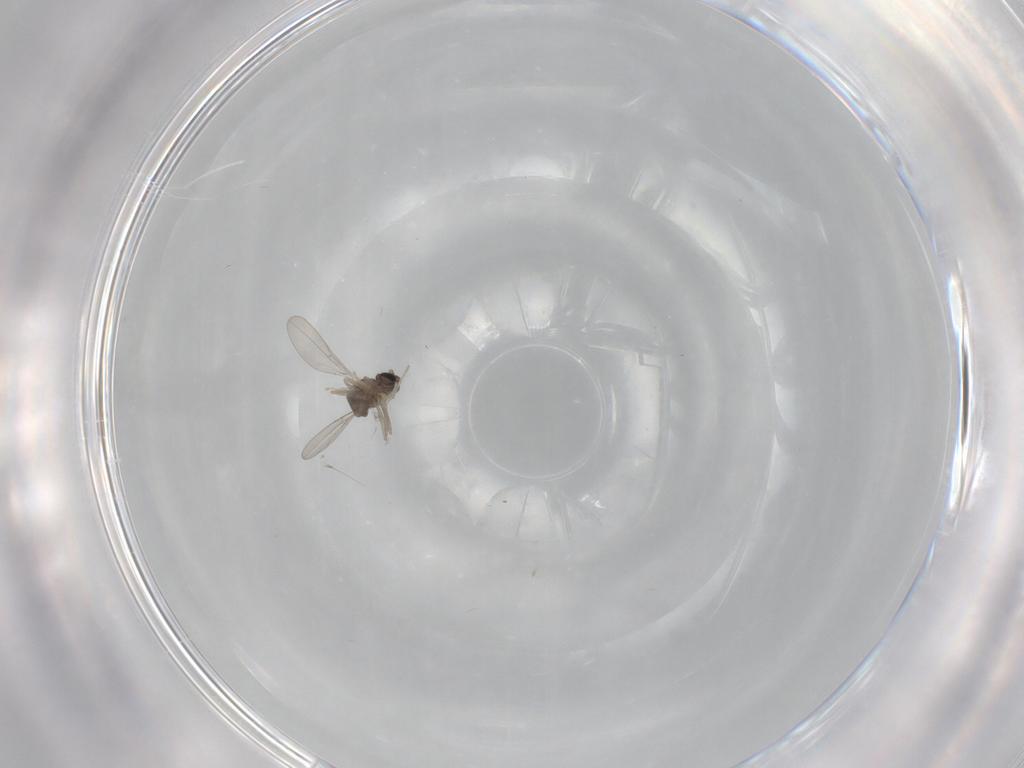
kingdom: Animalia
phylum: Arthropoda
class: Insecta
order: Diptera
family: Cecidomyiidae
